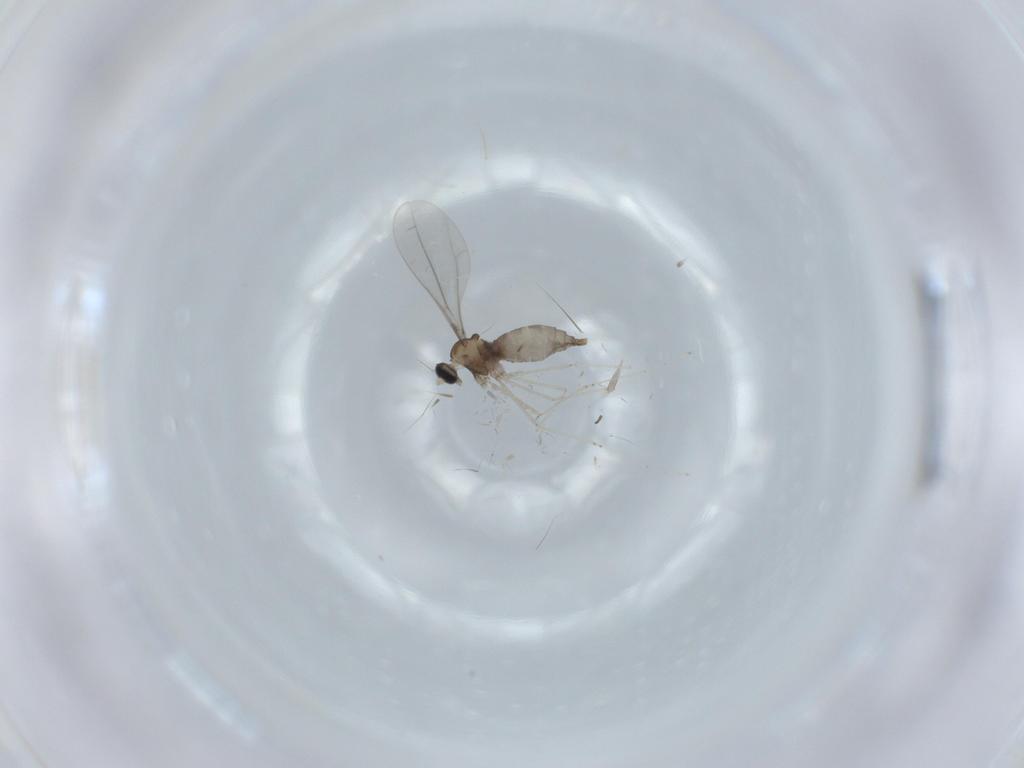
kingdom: Animalia
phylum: Arthropoda
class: Insecta
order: Diptera
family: Cecidomyiidae
